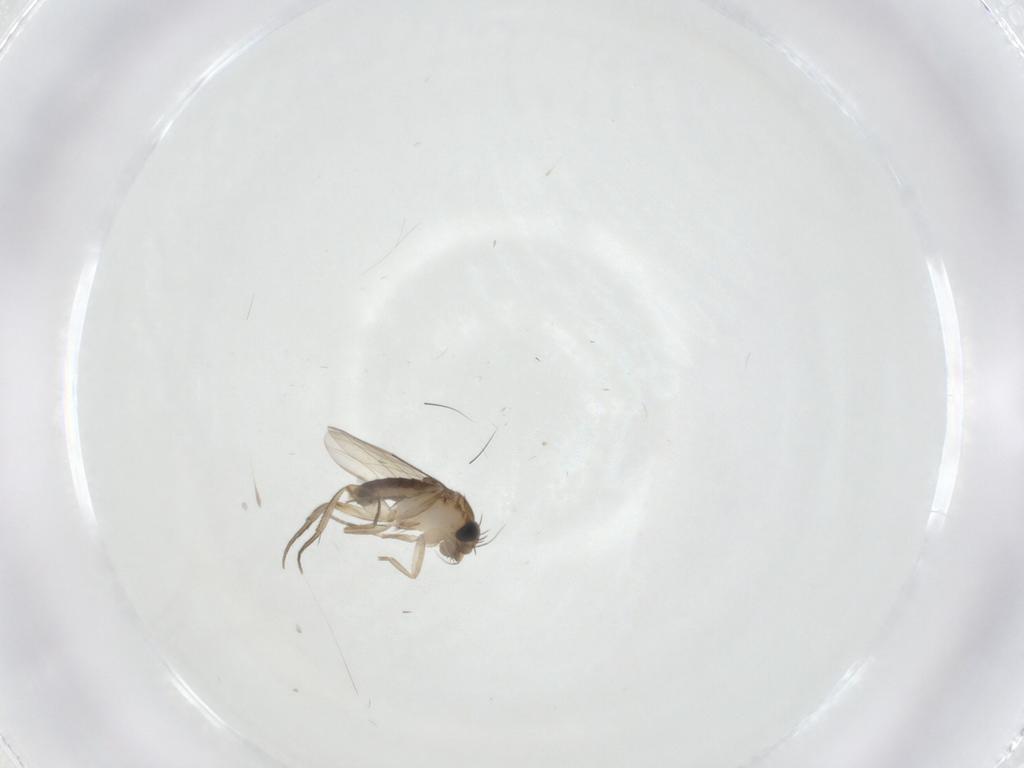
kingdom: Animalia
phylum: Arthropoda
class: Insecta
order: Diptera
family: Phoridae
